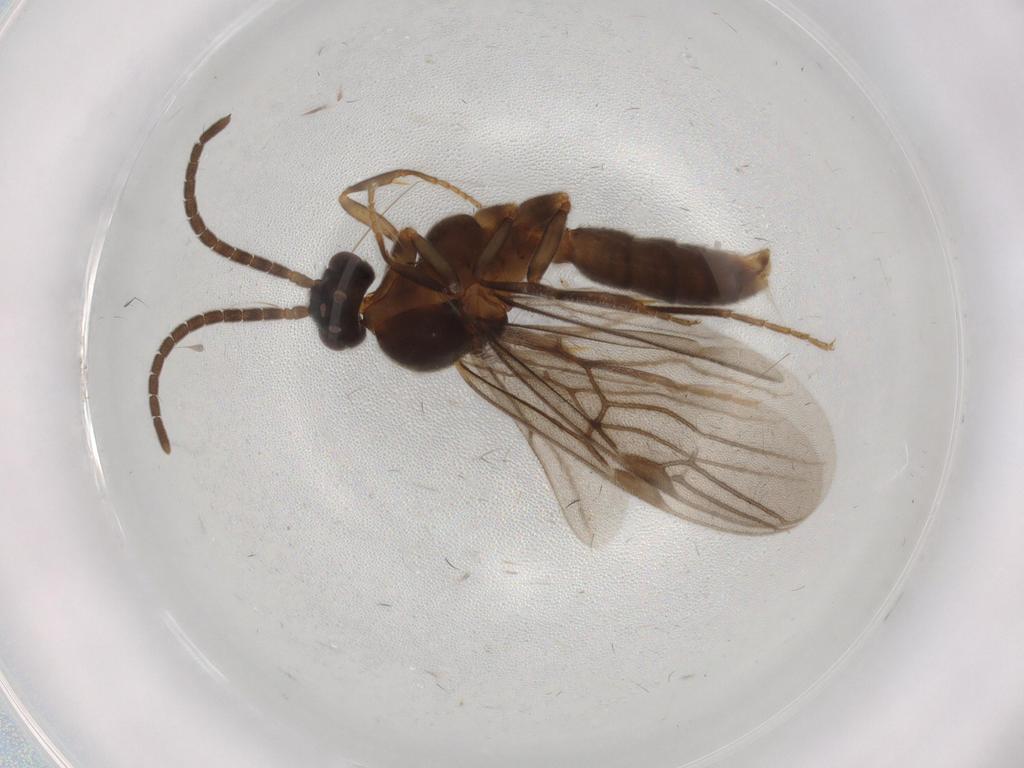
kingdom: Animalia
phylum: Arthropoda
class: Insecta
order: Hymenoptera
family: Formicidae
